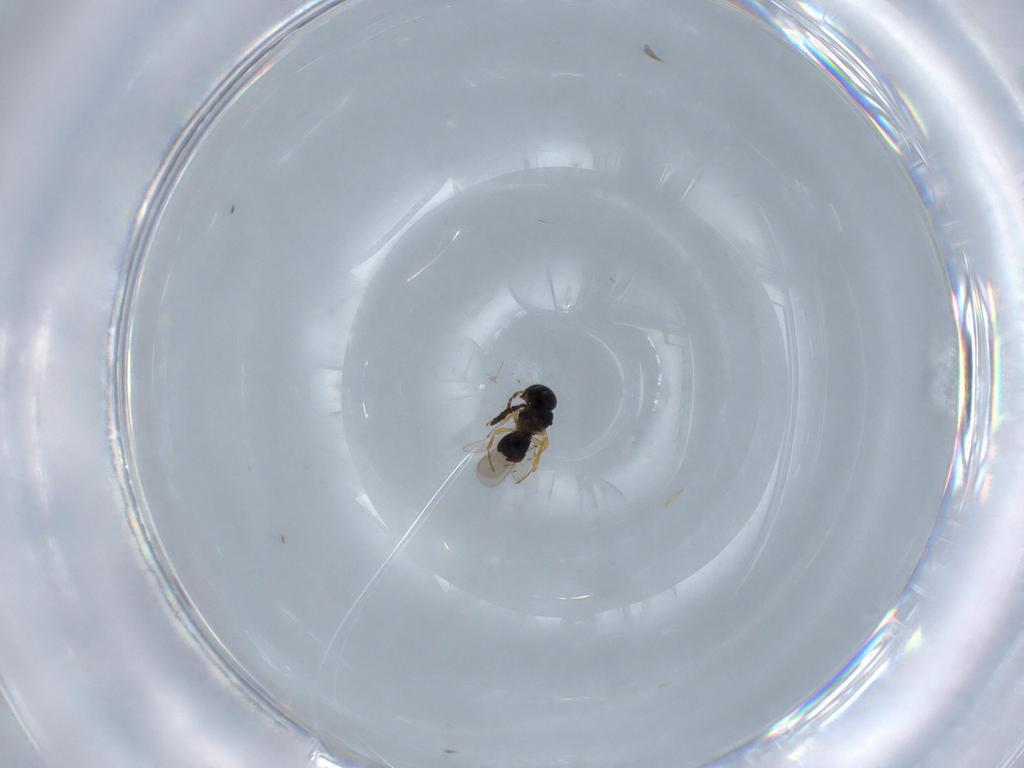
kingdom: Animalia
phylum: Arthropoda
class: Insecta
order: Hymenoptera
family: Scelionidae
